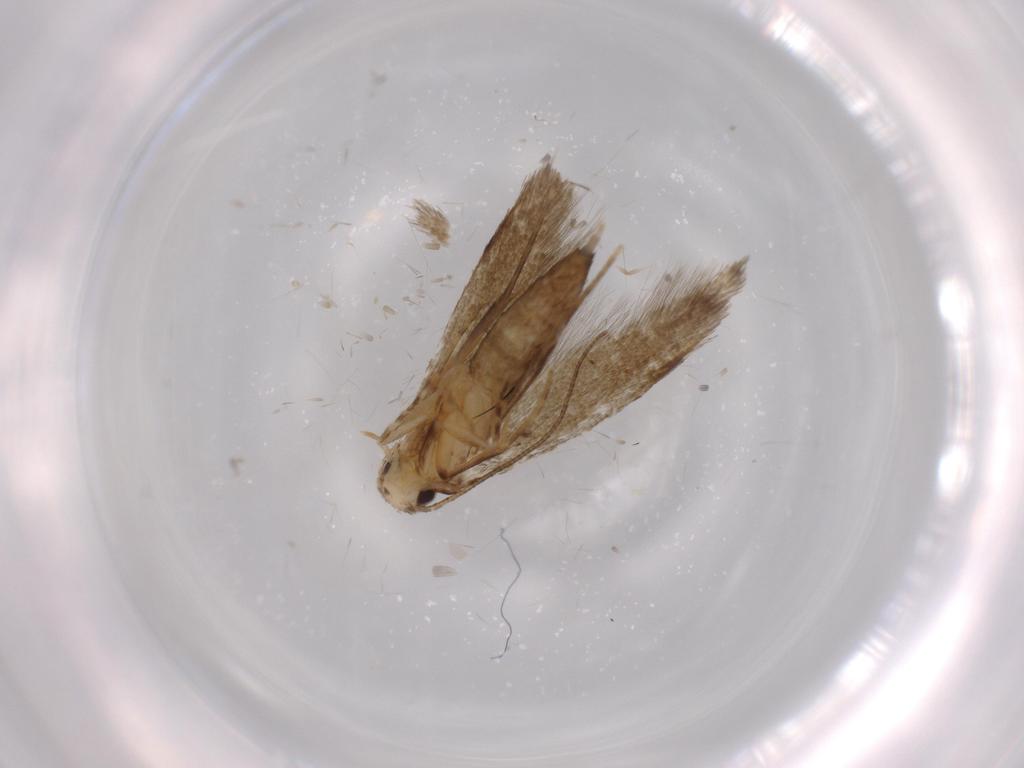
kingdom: Animalia
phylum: Arthropoda
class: Insecta
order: Lepidoptera
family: Tineidae
